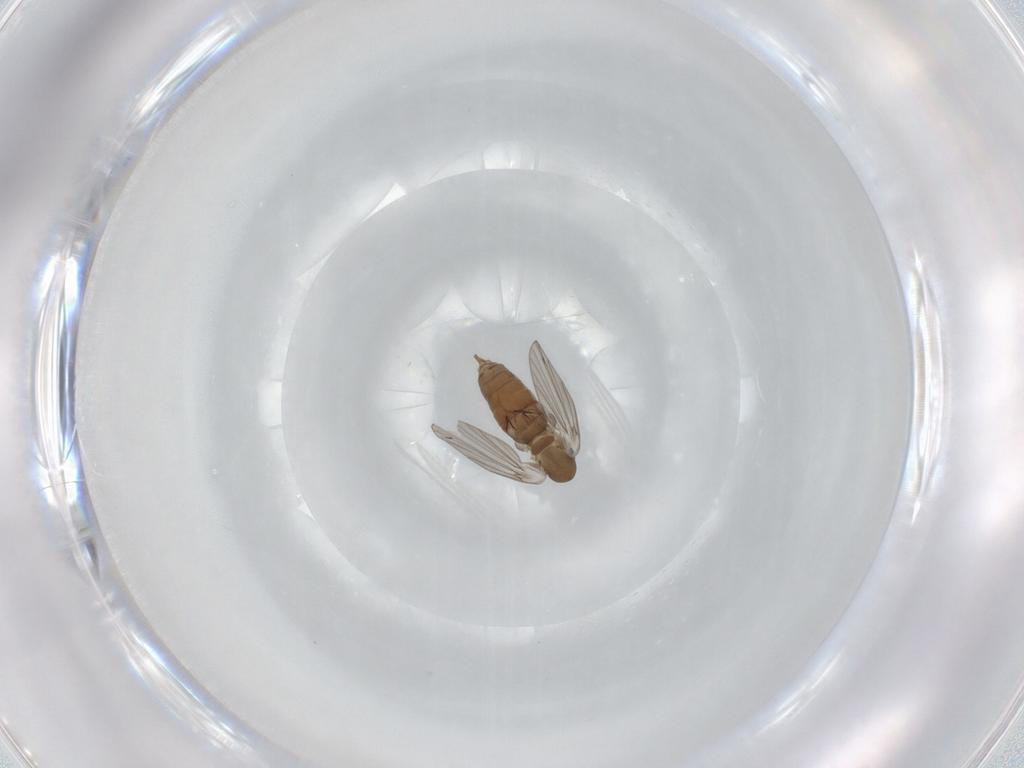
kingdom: Animalia
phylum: Arthropoda
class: Insecta
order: Diptera
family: Psychodidae
